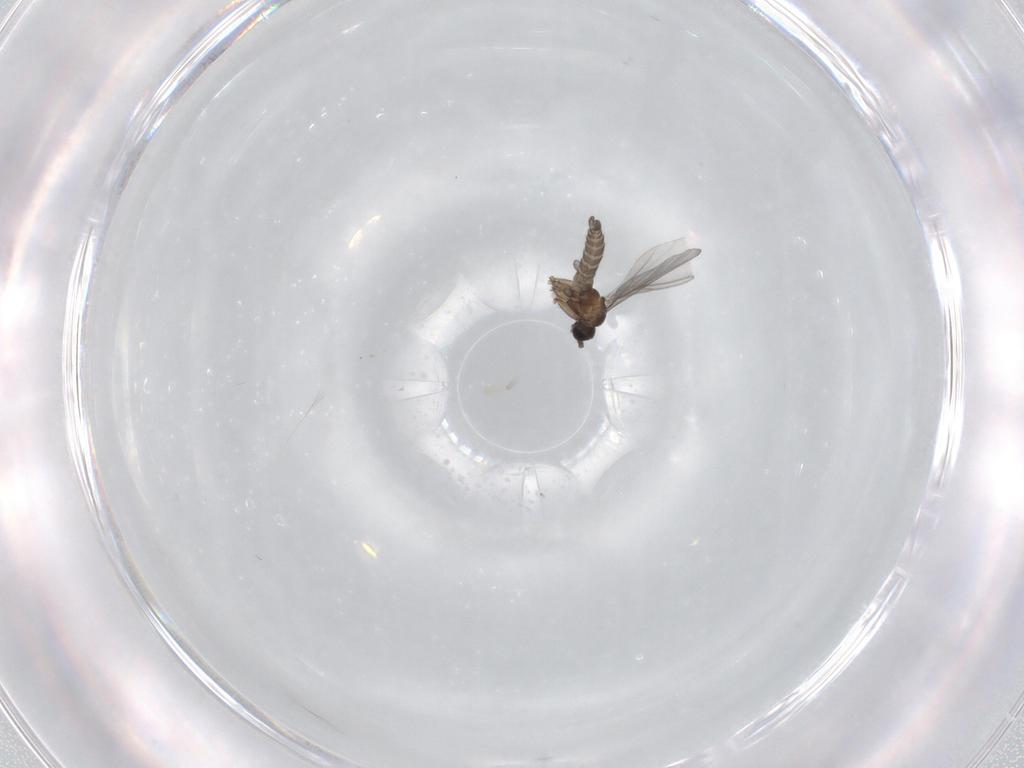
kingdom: Animalia
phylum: Arthropoda
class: Insecta
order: Diptera
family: Sciaridae
